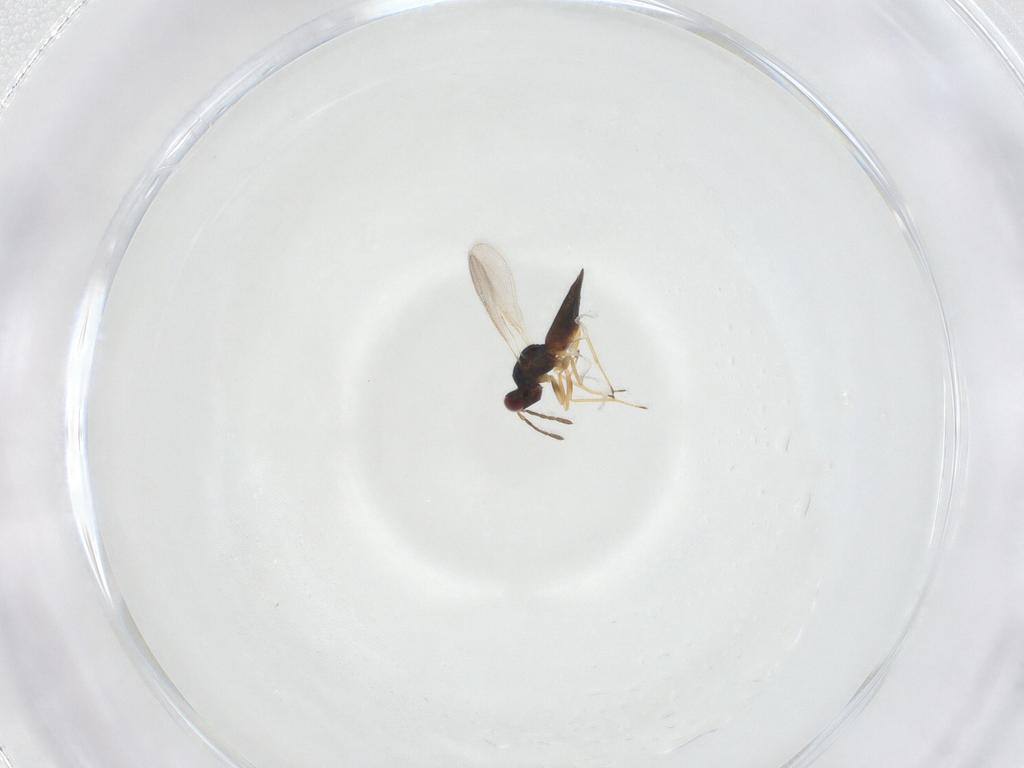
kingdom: Animalia
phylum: Arthropoda
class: Insecta
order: Hymenoptera
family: Eulophidae
